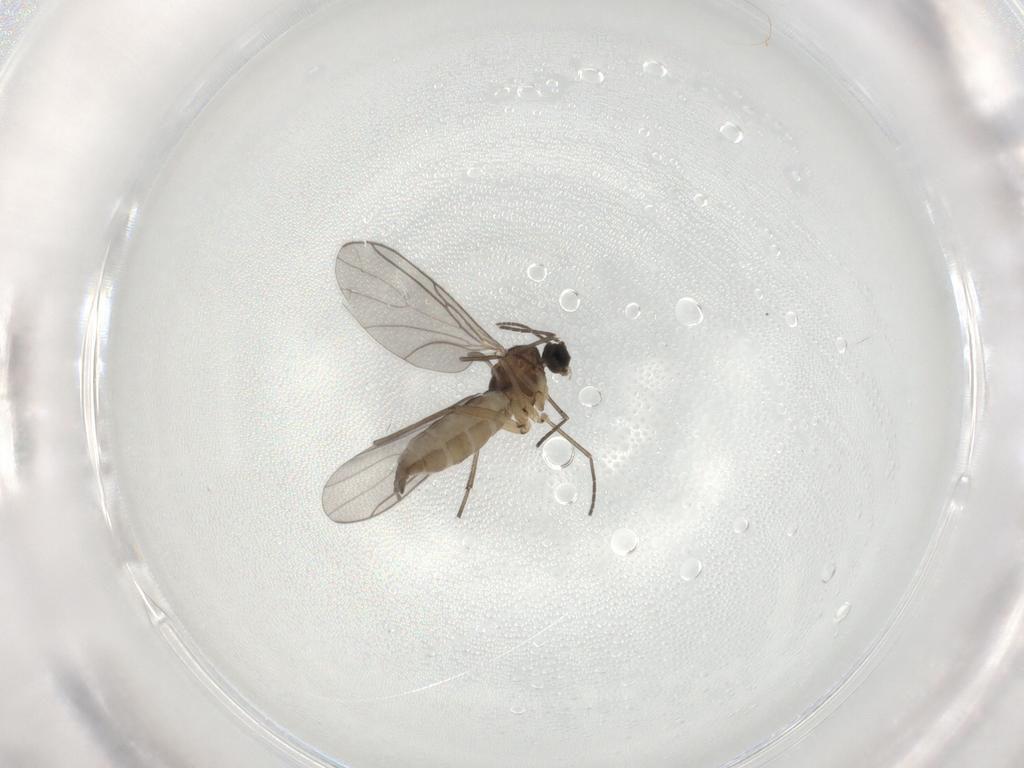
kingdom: Animalia
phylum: Arthropoda
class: Insecta
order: Diptera
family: Sciaridae
